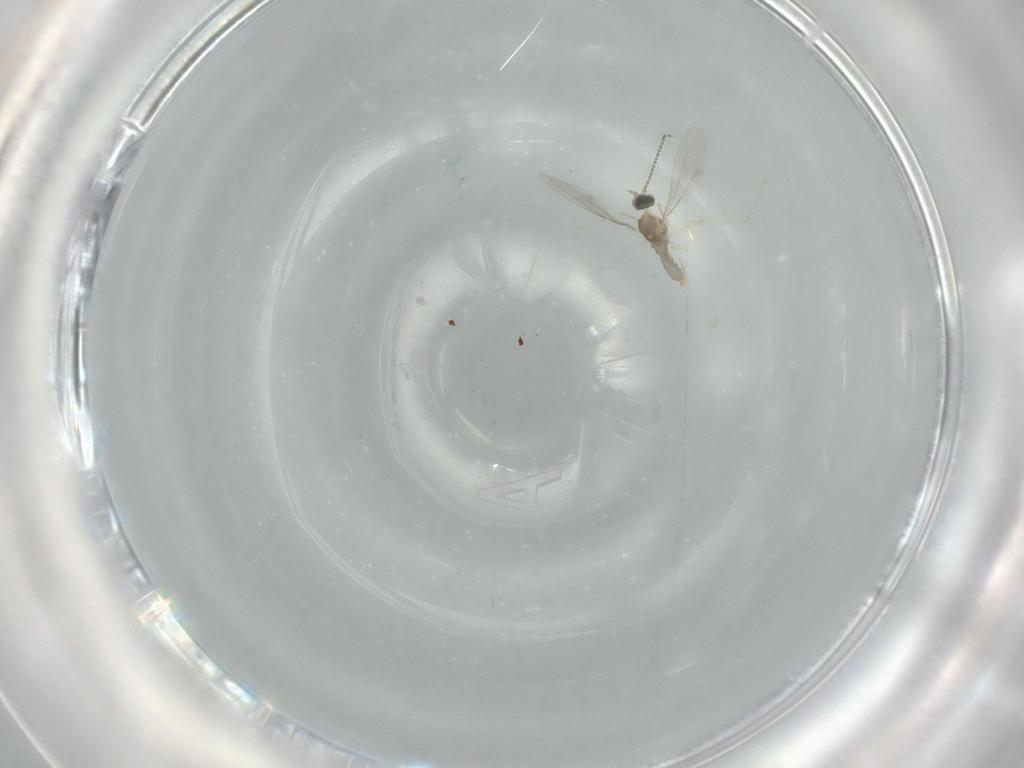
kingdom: Animalia
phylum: Arthropoda
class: Insecta
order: Diptera
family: Cecidomyiidae
